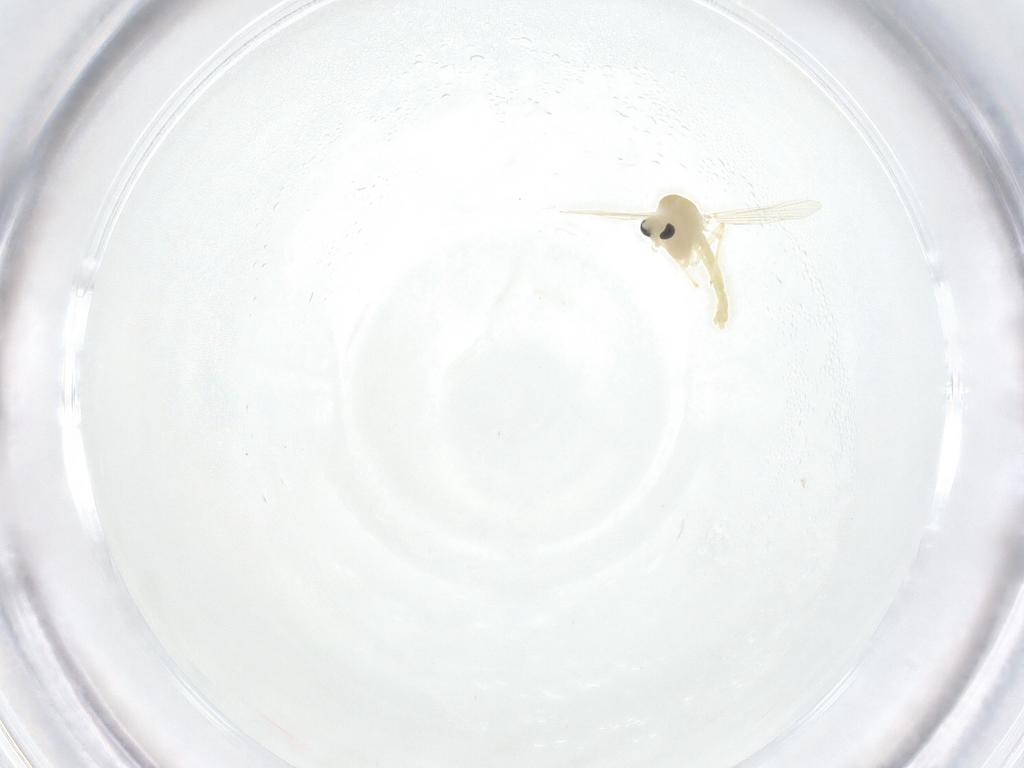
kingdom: Animalia
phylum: Arthropoda
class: Insecta
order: Diptera
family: Chironomidae
